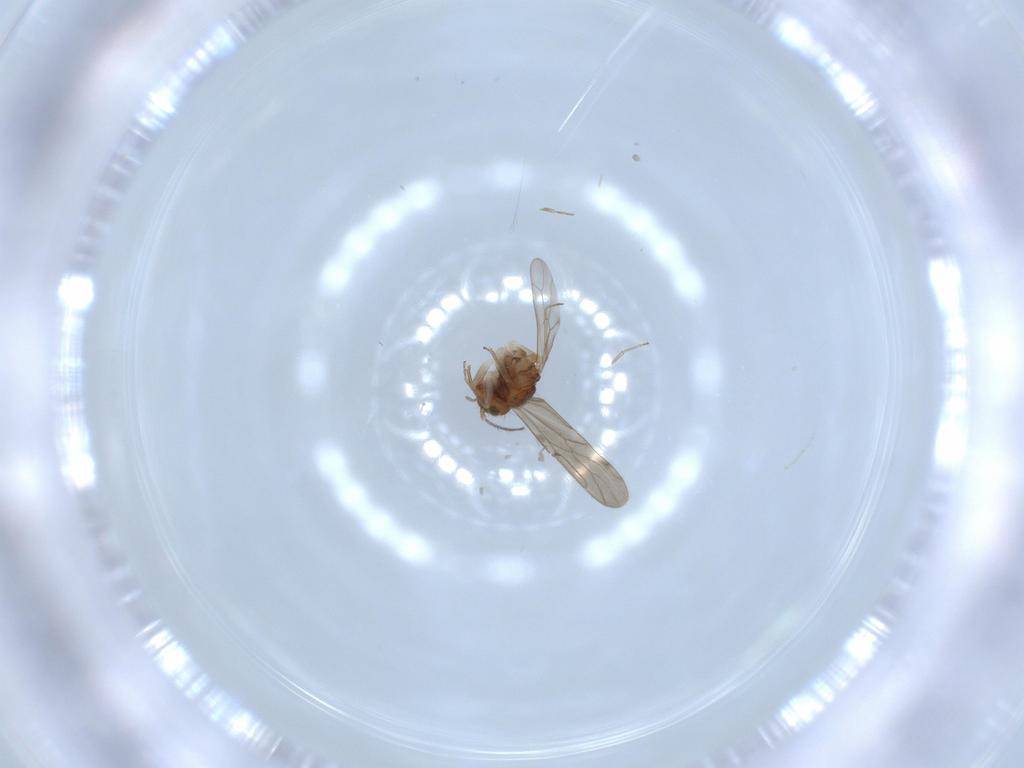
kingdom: Animalia
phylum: Arthropoda
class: Insecta
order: Psocodea
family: Ectopsocidae
